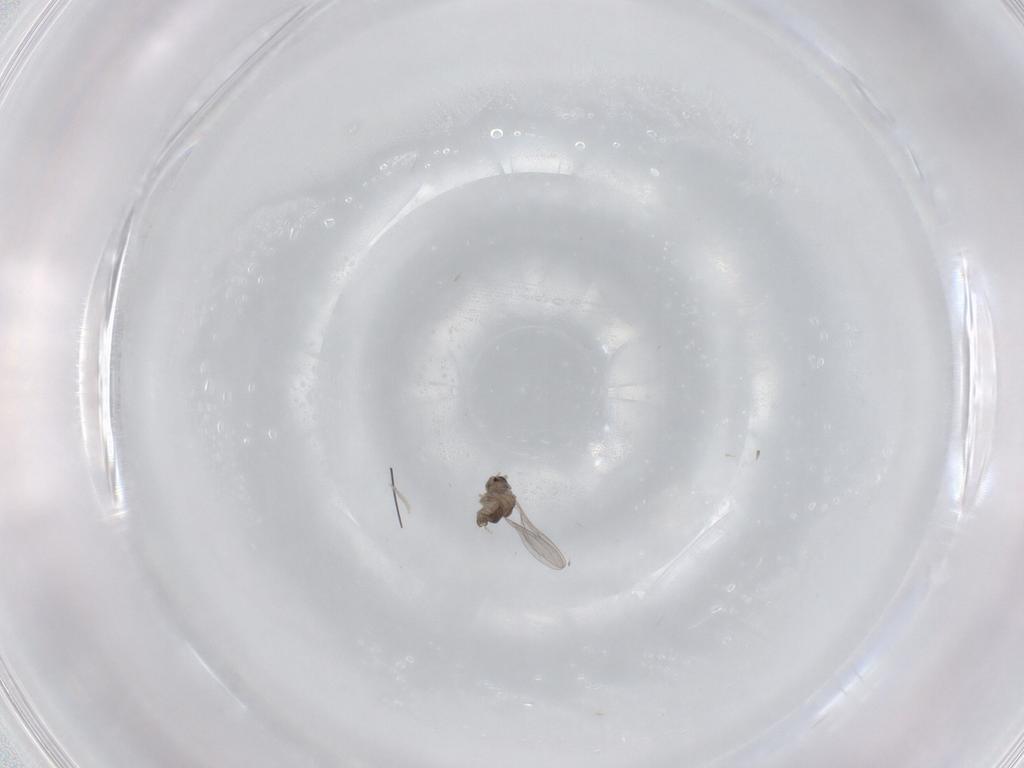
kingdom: Animalia
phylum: Arthropoda
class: Insecta
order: Diptera
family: Cecidomyiidae
